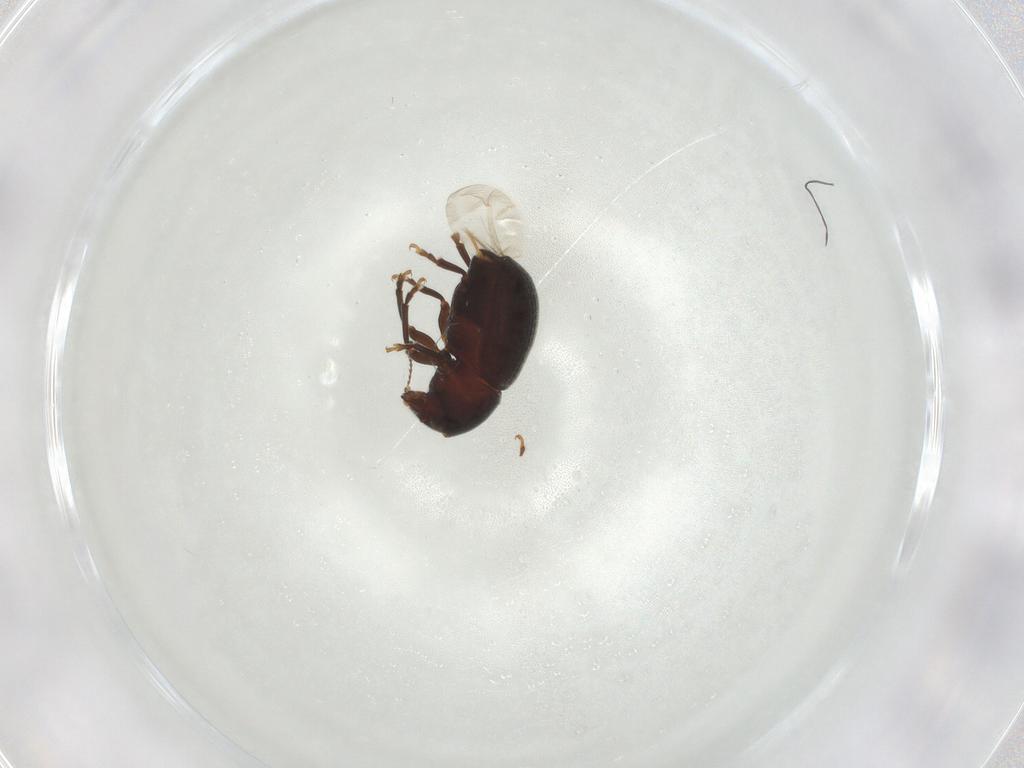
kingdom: Animalia
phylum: Arthropoda
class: Insecta
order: Coleoptera
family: Anthribidae
